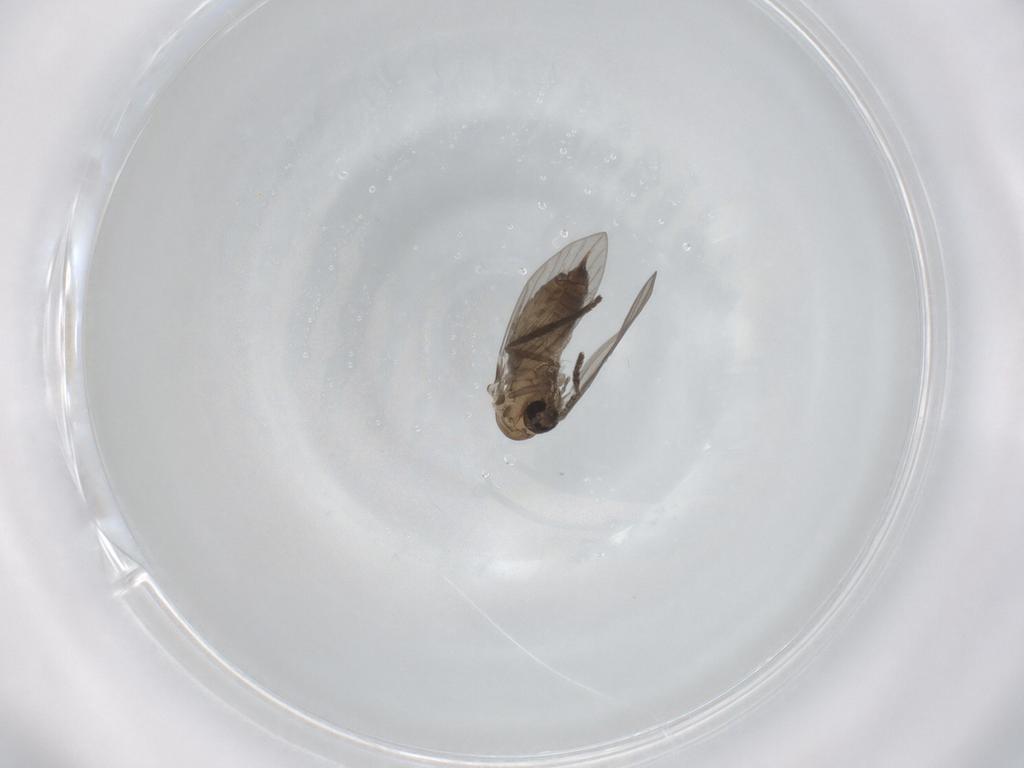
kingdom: Animalia
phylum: Arthropoda
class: Insecta
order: Diptera
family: Psychodidae
